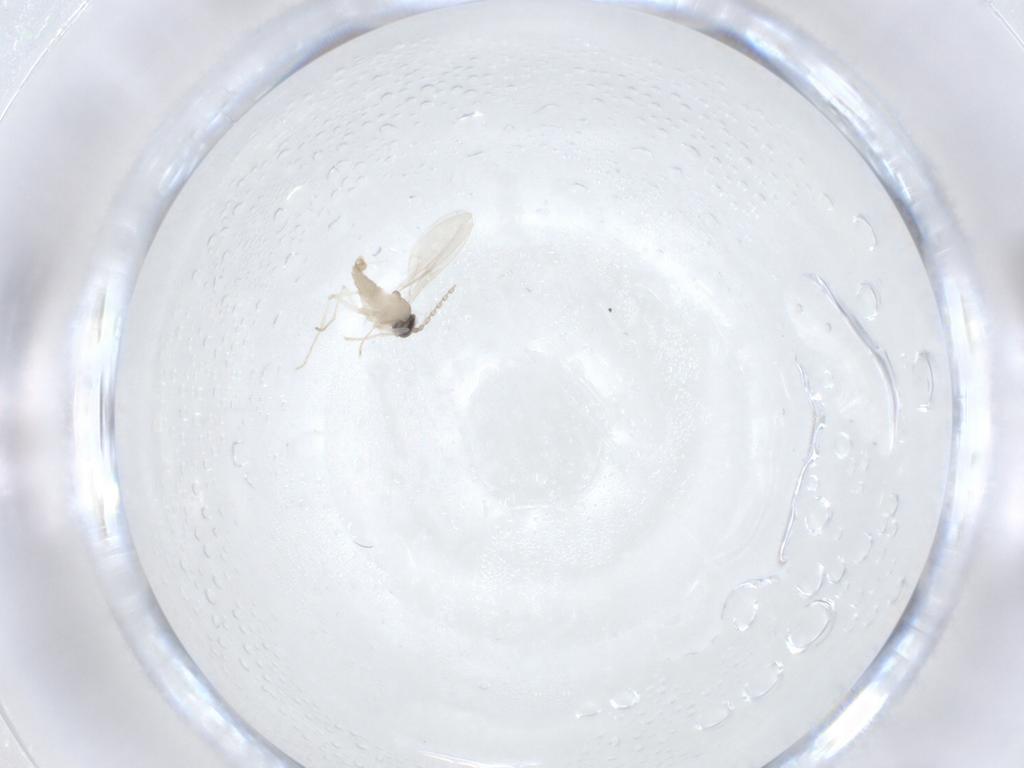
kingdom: Animalia
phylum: Arthropoda
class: Insecta
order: Diptera
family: Cecidomyiidae
